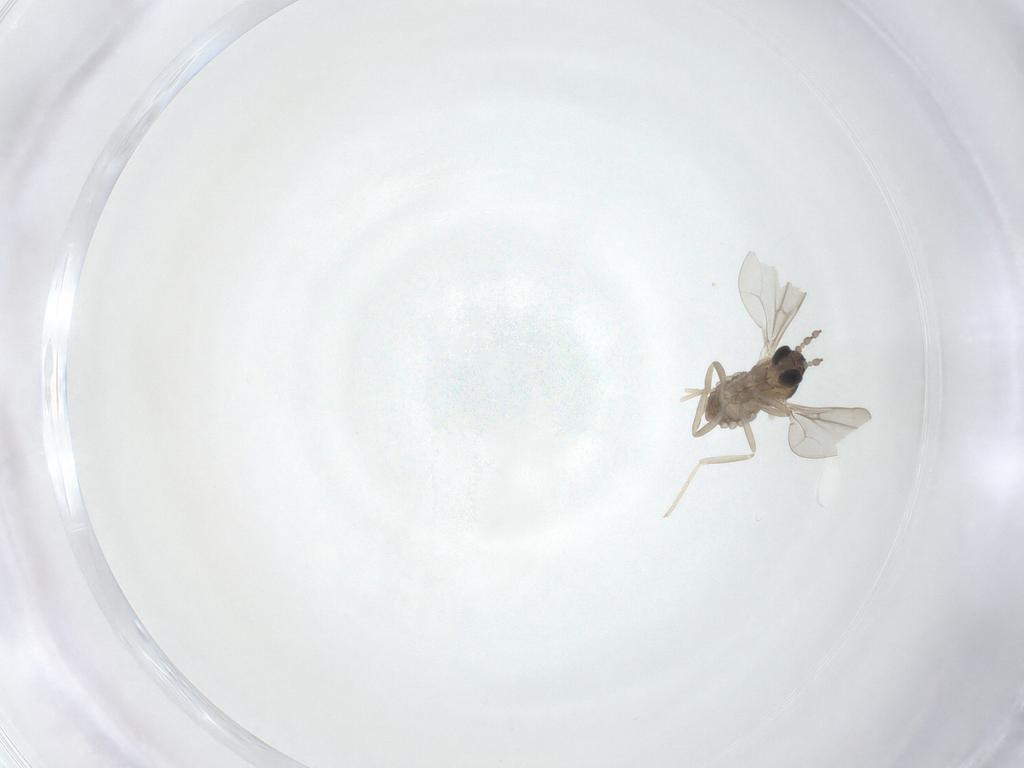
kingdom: Animalia
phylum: Arthropoda
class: Insecta
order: Diptera
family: Cecidomyiidae
